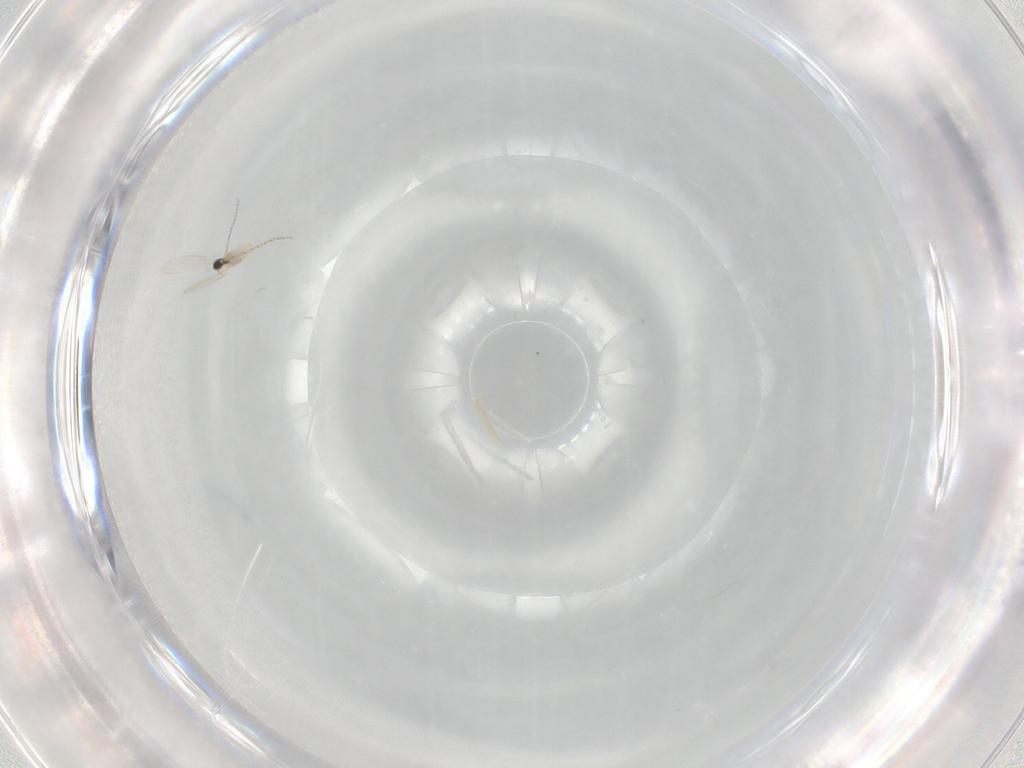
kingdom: Animalia
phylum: Arthropoda
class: Insecta
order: Diptera
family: Cecidomyiidae
